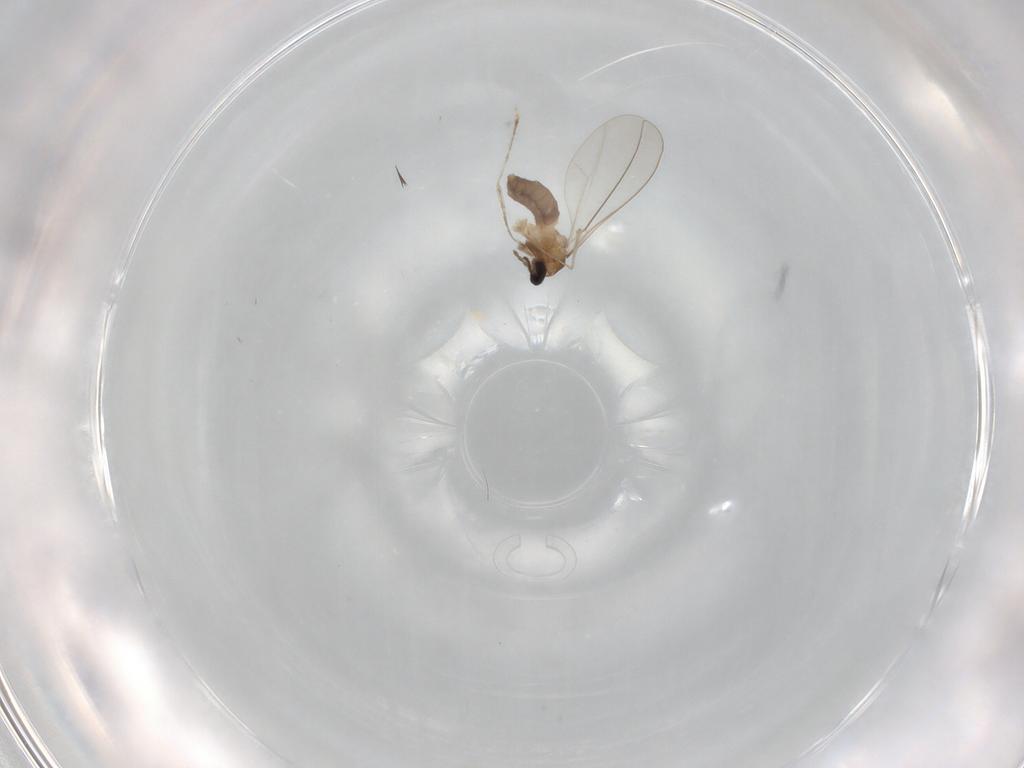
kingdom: Animalia
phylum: Arthropoda
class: Insecta
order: Diptera
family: Cecidomyiidae
